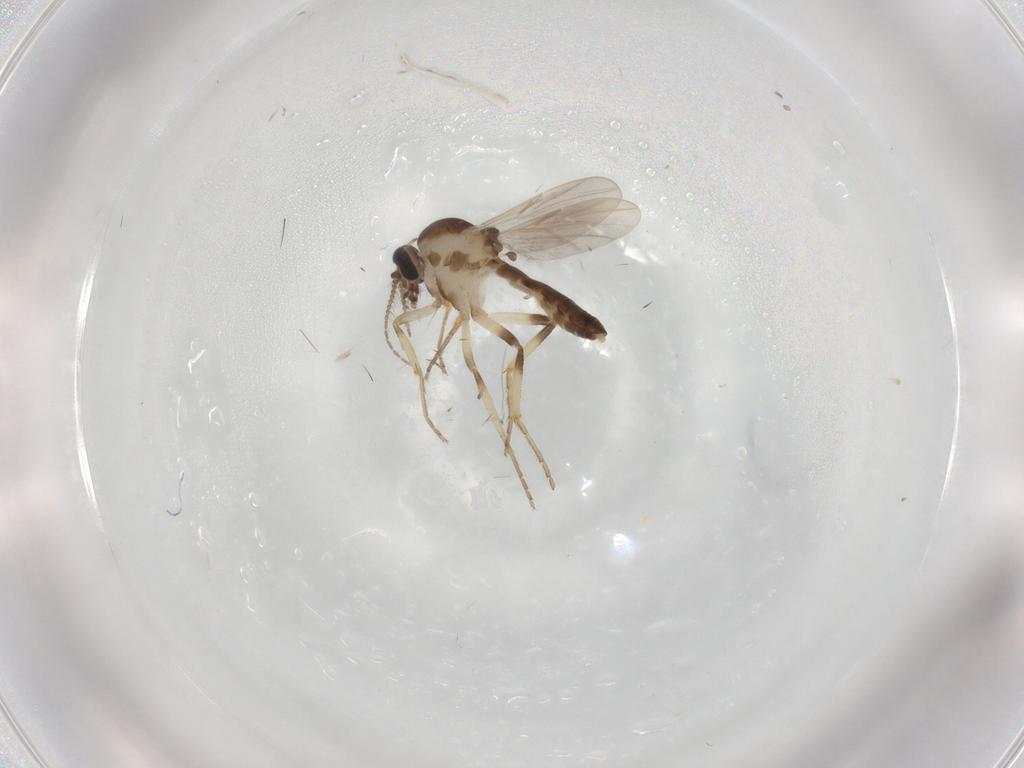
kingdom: Animalia
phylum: Arthropoda
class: Insecta
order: Diptera
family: Ceratopogonidae
